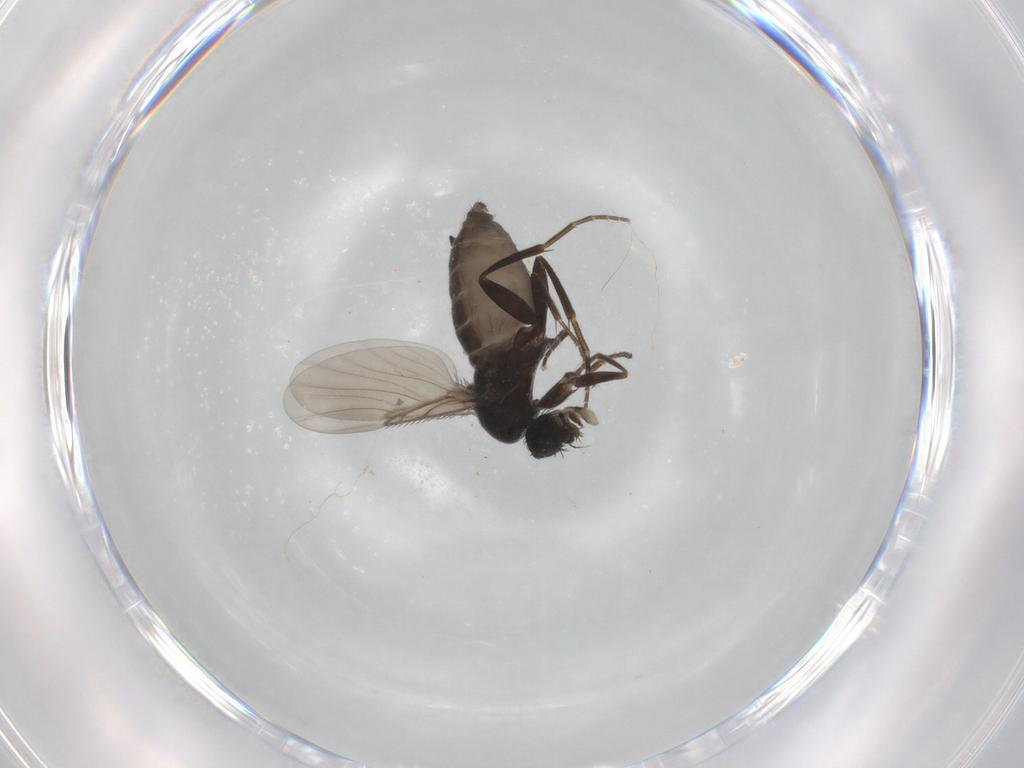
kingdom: Animalia
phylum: Arthropoda
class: Insecta
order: Diptera
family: Phoridae
